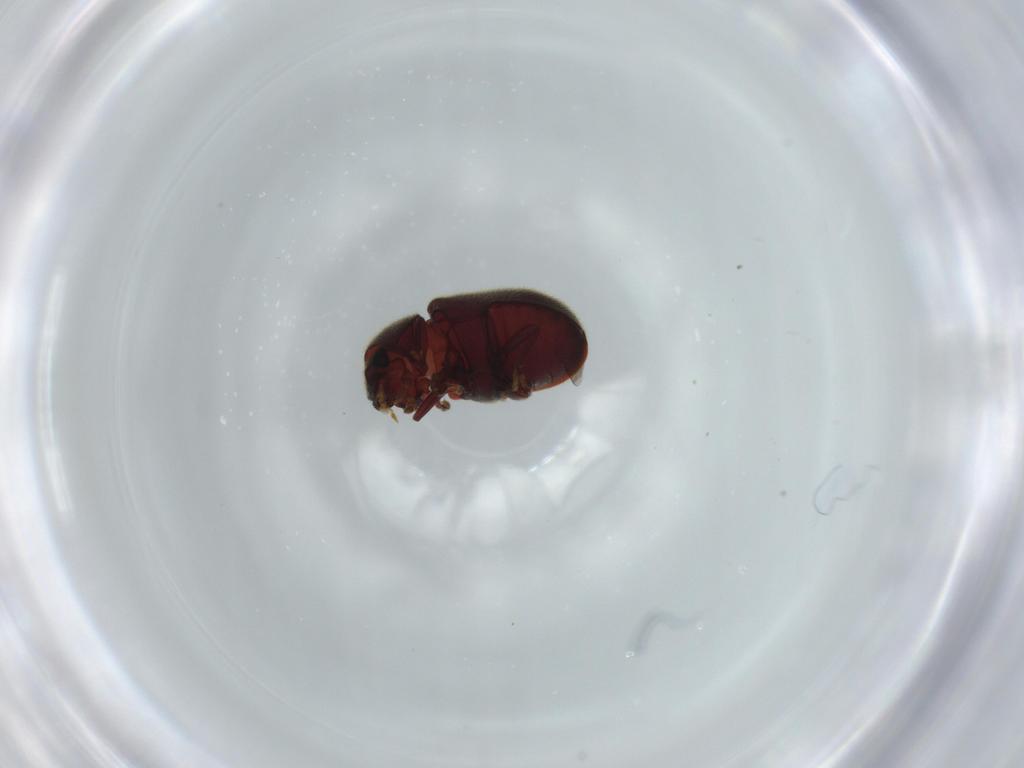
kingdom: Animalia
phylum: Arthropoda
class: Insecta
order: Coleoptera
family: Ptinidae
